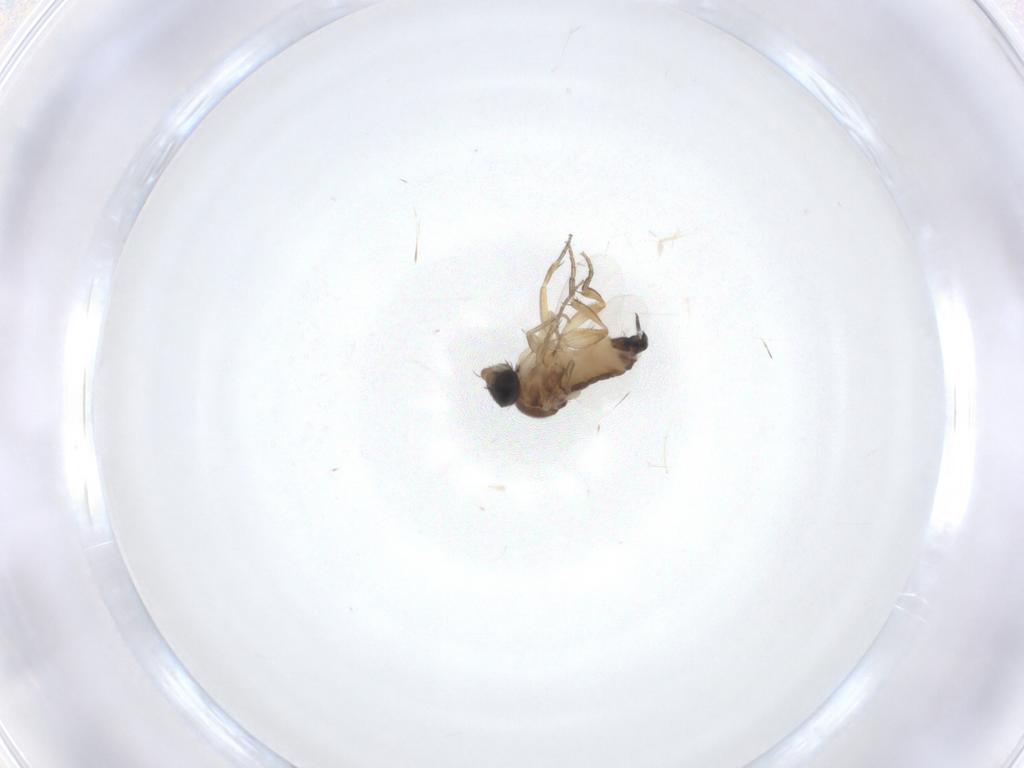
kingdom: Animalia
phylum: Arthropoda
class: Insecta
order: Diptera
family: Phoridae
